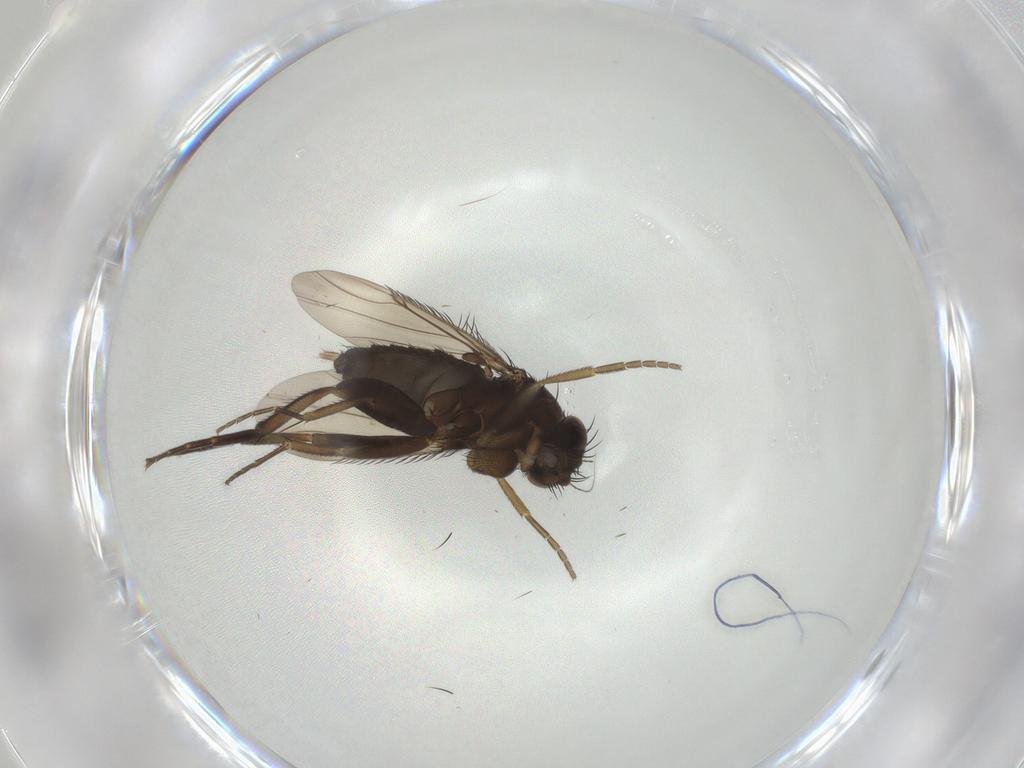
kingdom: Animalia
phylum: Arthropoda
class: Insecta
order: Diptera
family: Phoridae
